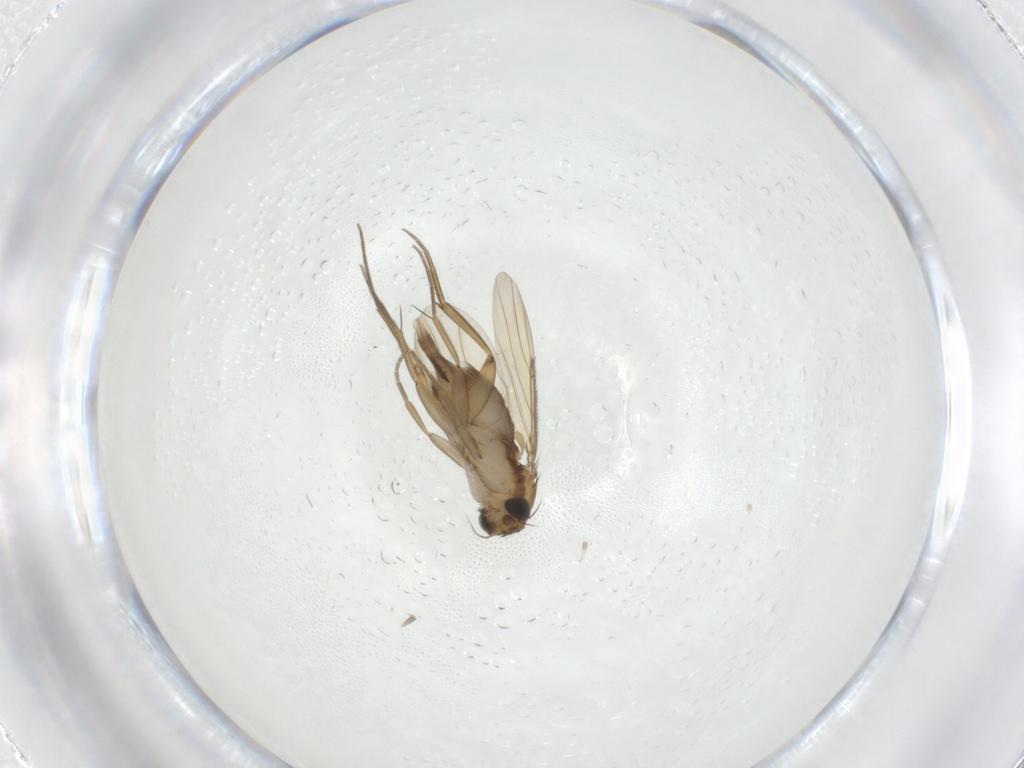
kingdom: Animalia
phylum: Arthropoda
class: Insecta
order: Diptera
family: Phoridae
